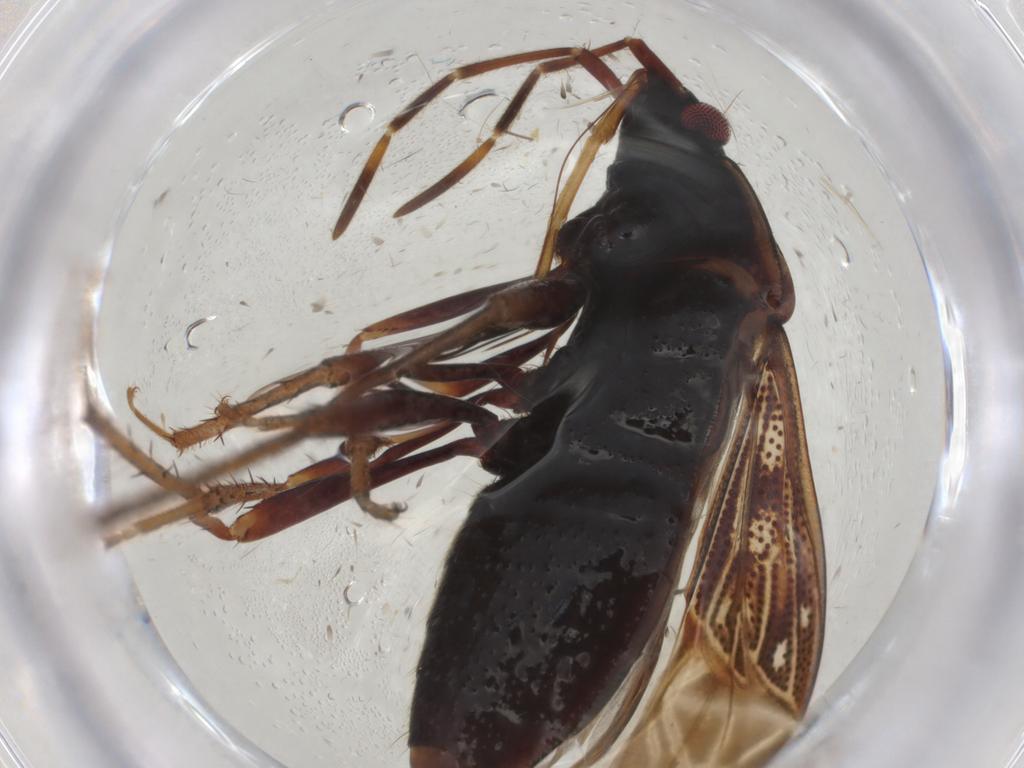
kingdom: Animalia
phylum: Arthropoda
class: Insecta
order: Hemiptera
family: Rhyparochromidae
